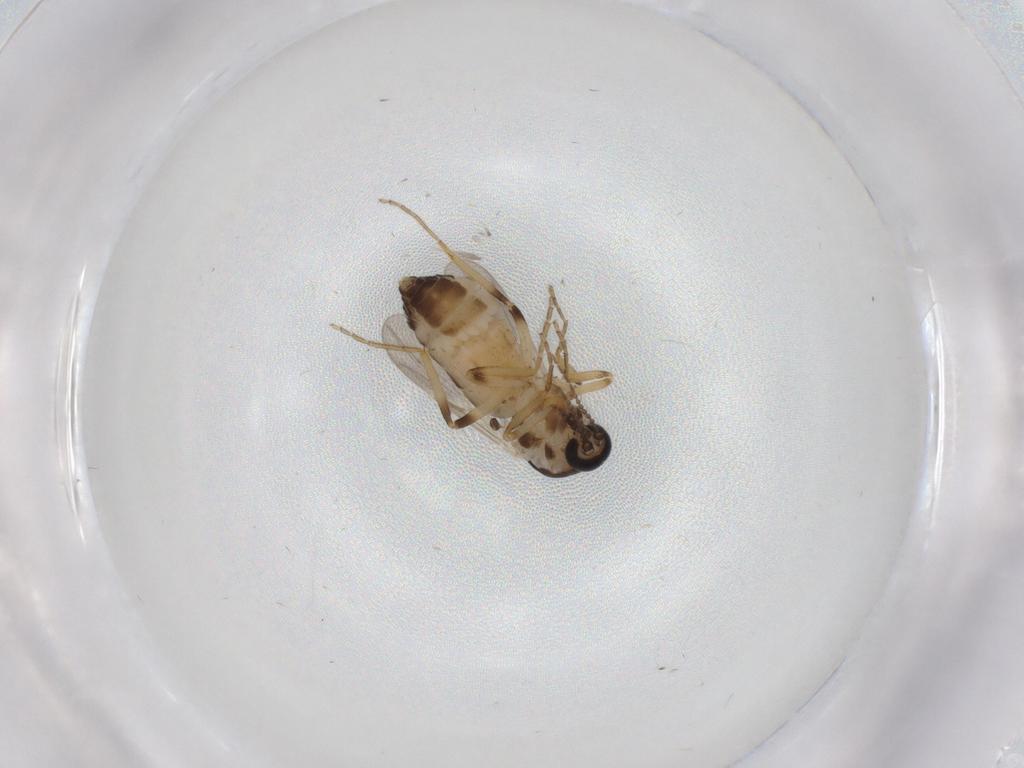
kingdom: Animalia
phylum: Arthropoda
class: Insecta
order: Diptera
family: Ceratopogonidae
